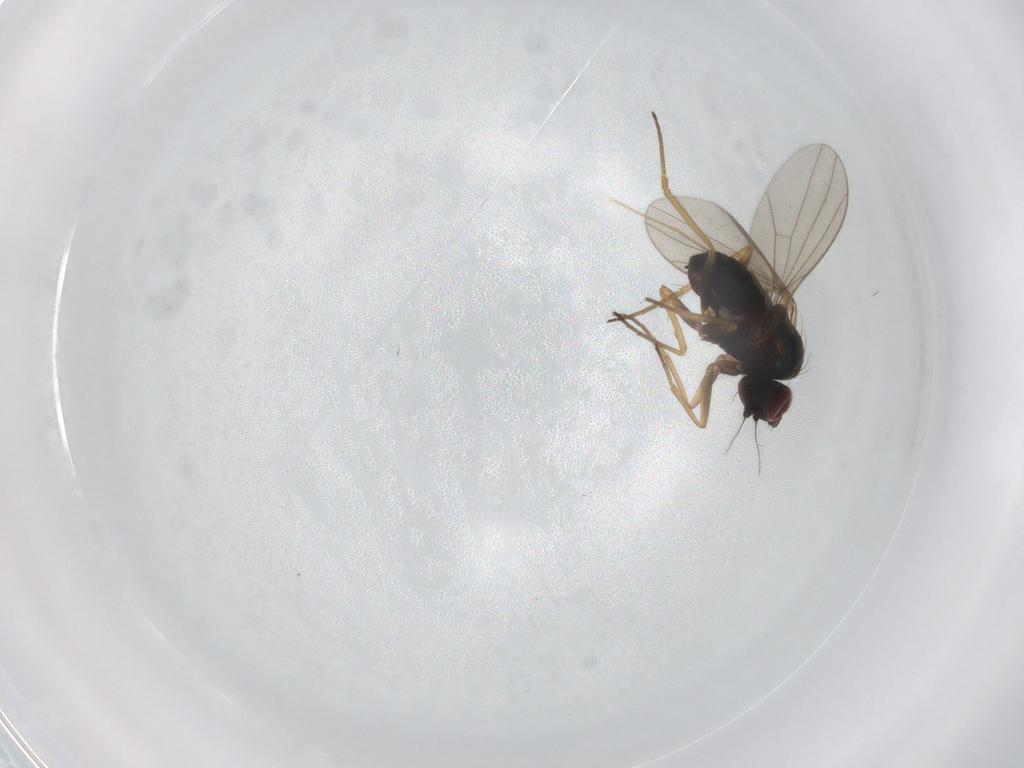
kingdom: Animalia
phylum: Arthropoda
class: Insecta
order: Diptera
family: Chironomidae
